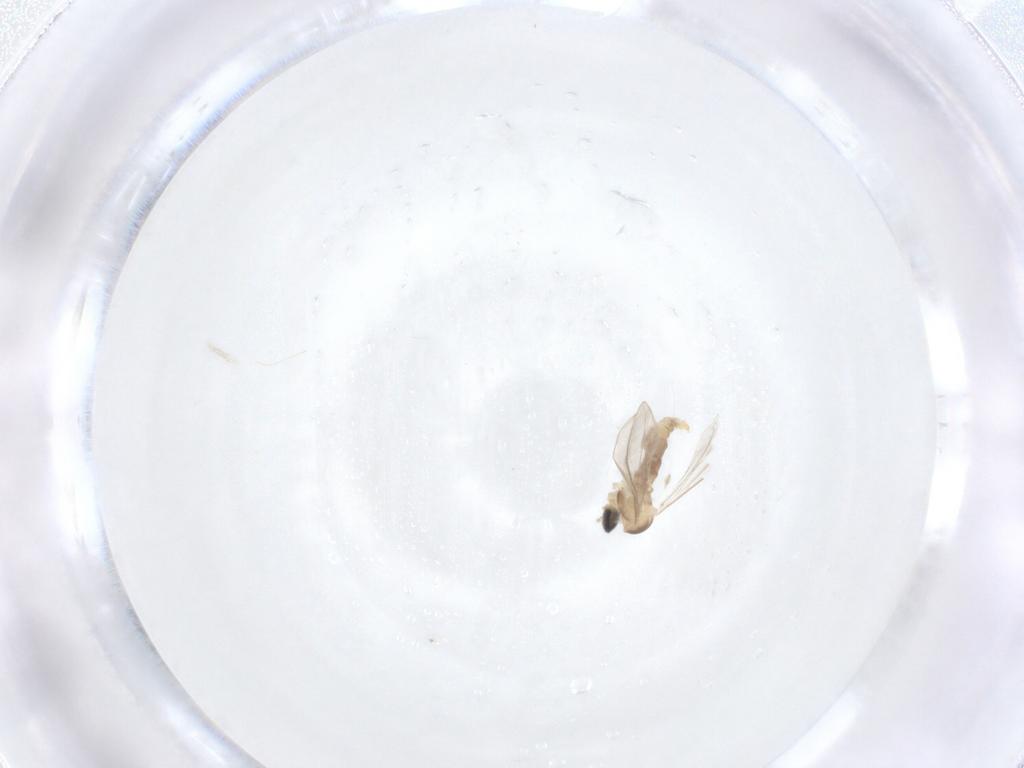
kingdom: Animalia
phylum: Arthropoda
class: Insecta
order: Diptera
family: Cecidomyiidae
